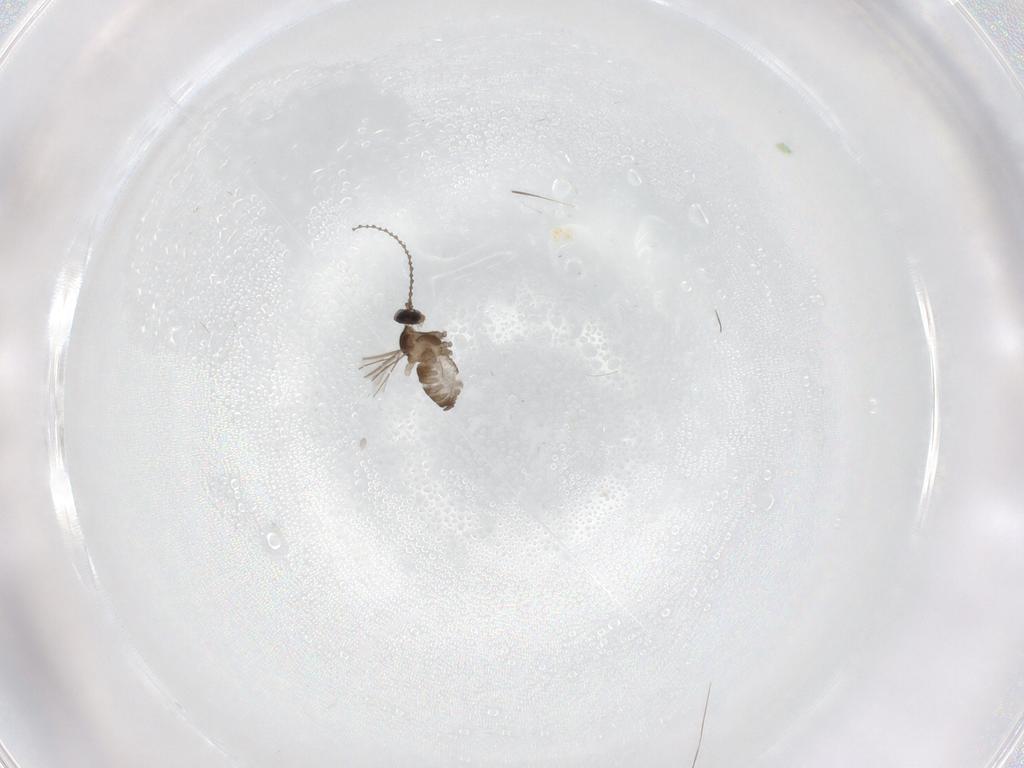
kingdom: Animalia
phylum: Arthropoda
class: Insecta
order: Diptera
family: Cecidomyiidae
